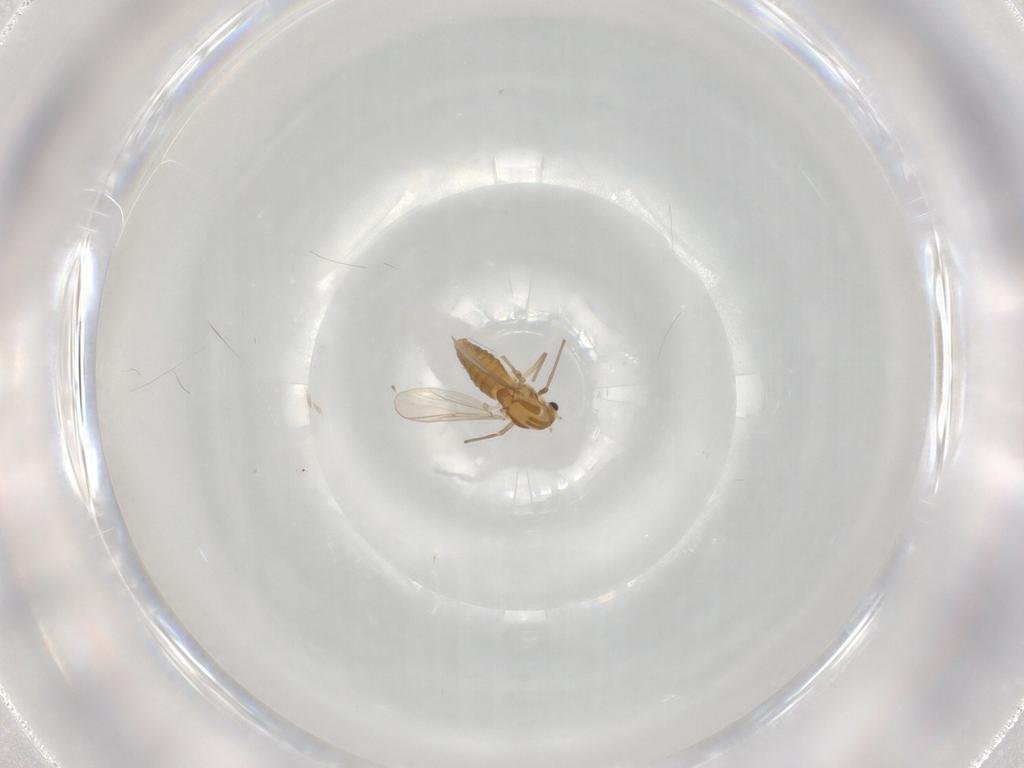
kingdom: Animalia
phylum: Arthropoda
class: Insecta
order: Diptera
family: Chironomidae
